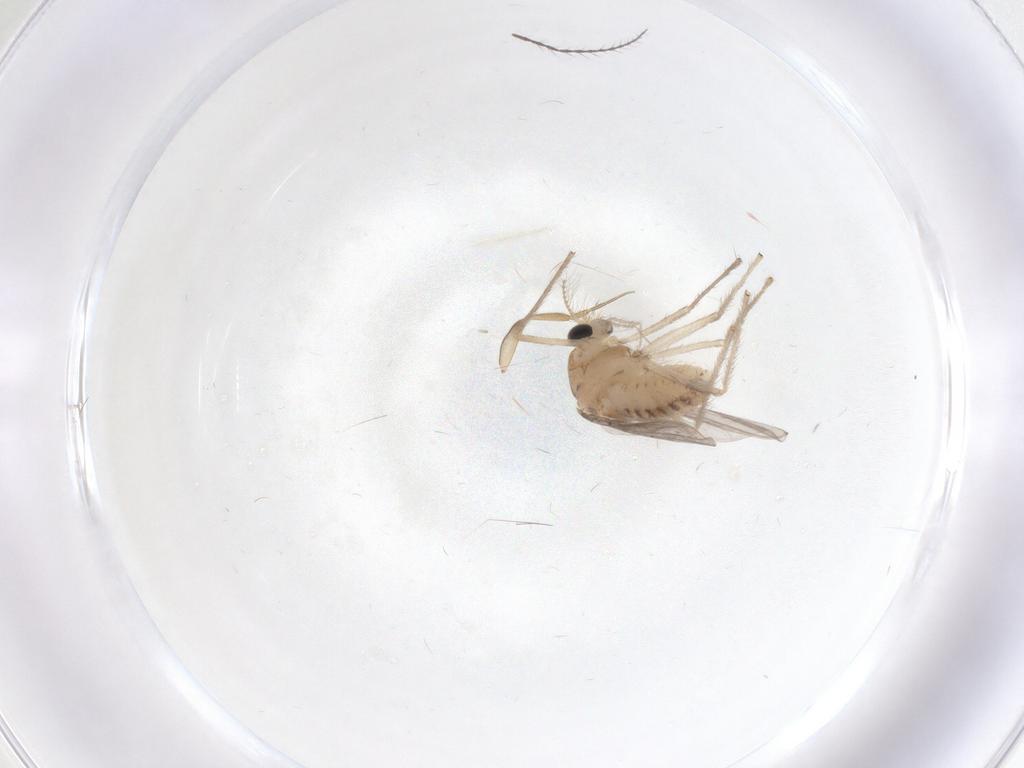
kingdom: Animalia
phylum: Arthropoda
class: Insecta
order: Diptera
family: Chironomidae
